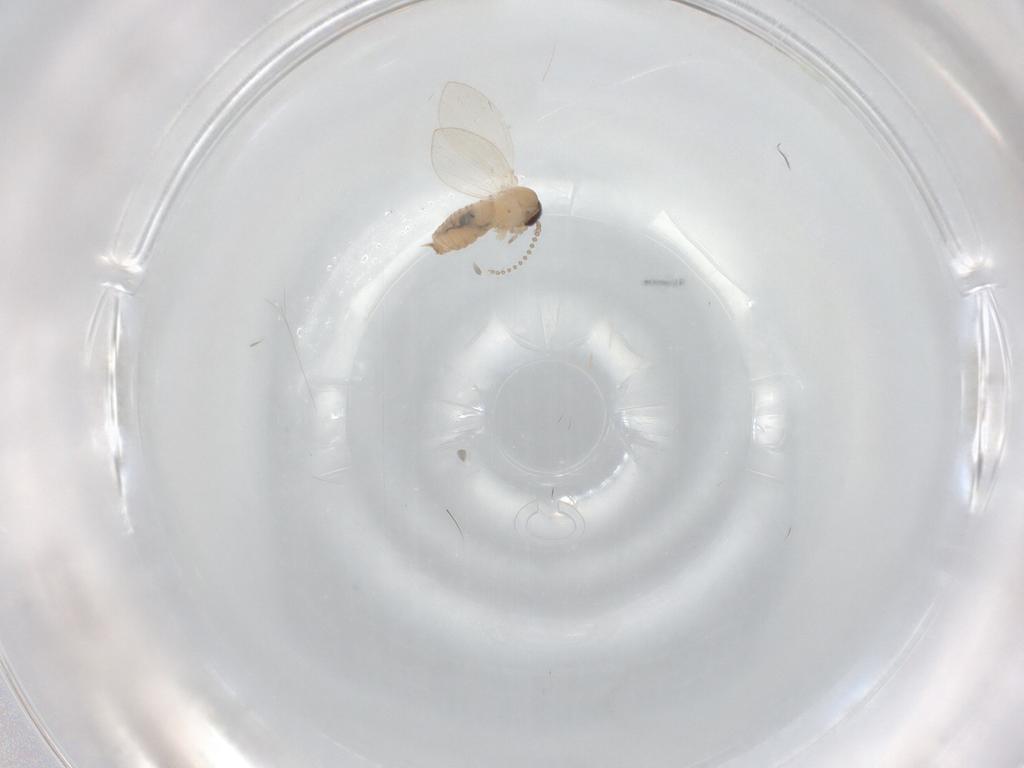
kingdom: Animalia
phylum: Arthropoda
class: Insecta
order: Diptera
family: Psychodidae
